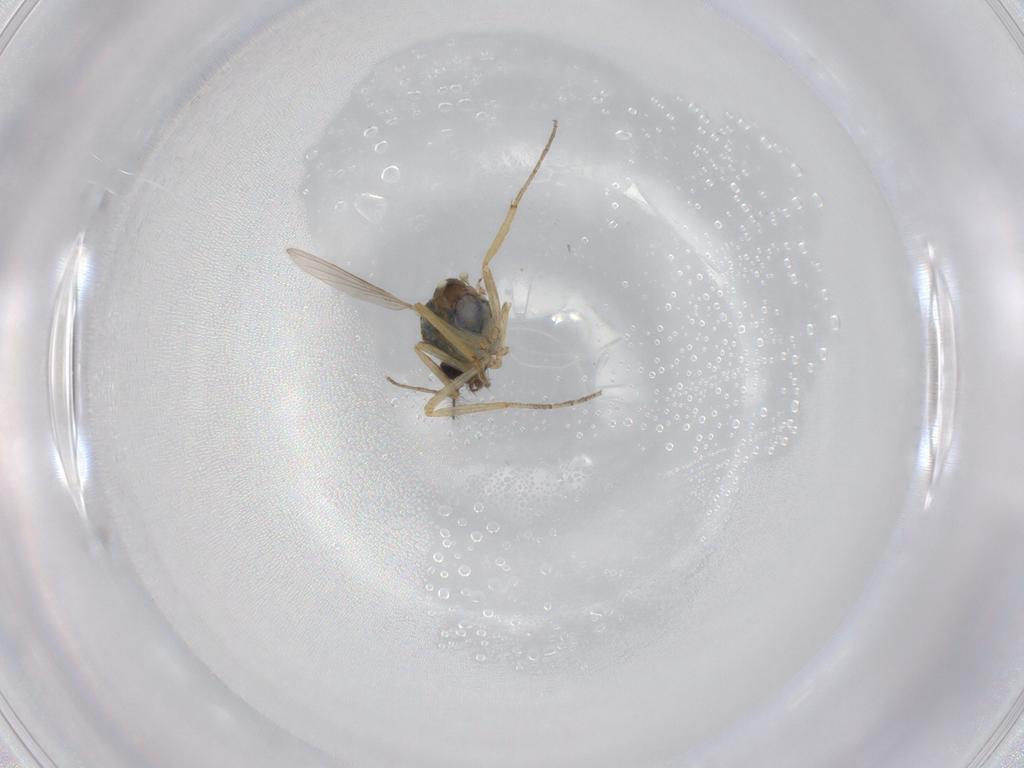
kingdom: Animalia
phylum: Arthropoda
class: Insecta
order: Diptera
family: Ceratopogonidae
